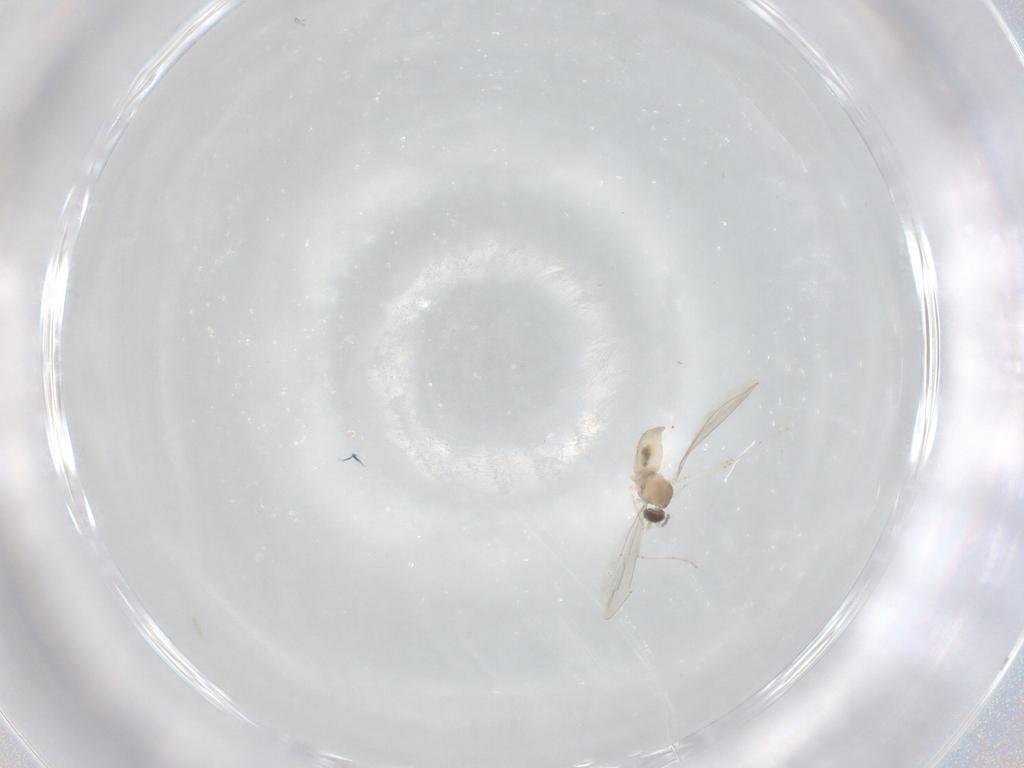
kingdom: Animalia
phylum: Arthropoda
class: Insecta
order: Diptera
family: Cecidomyiidae
